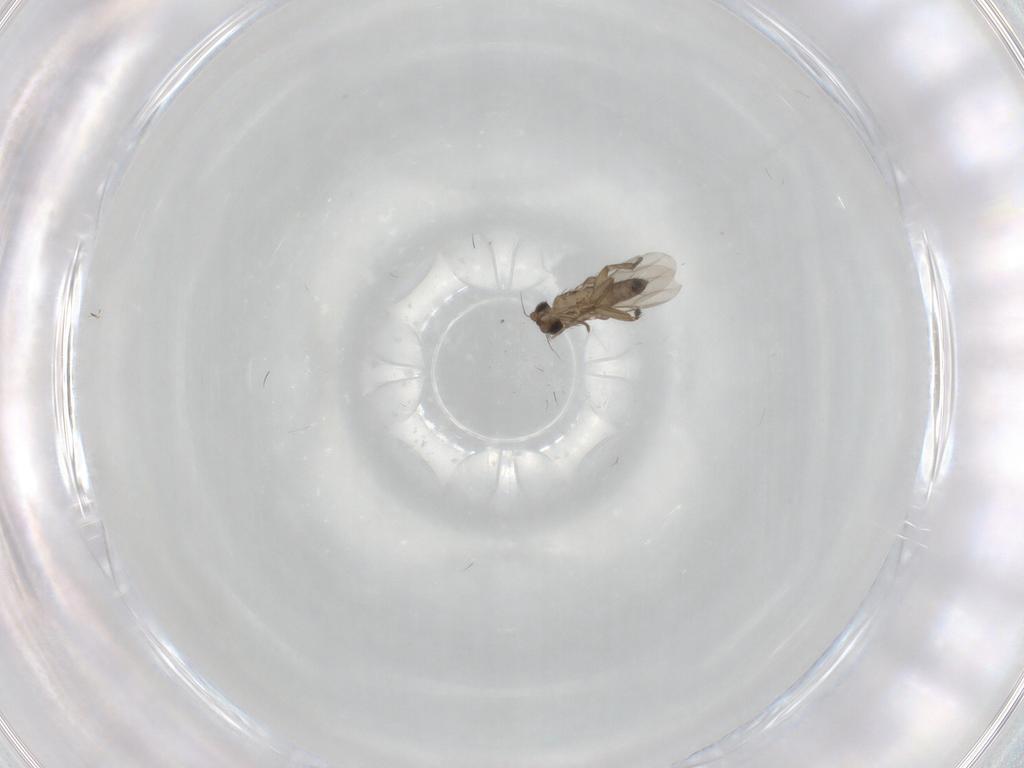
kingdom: Animalia
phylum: Arthropoda
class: Insecta
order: Diptera
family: Phoridae
